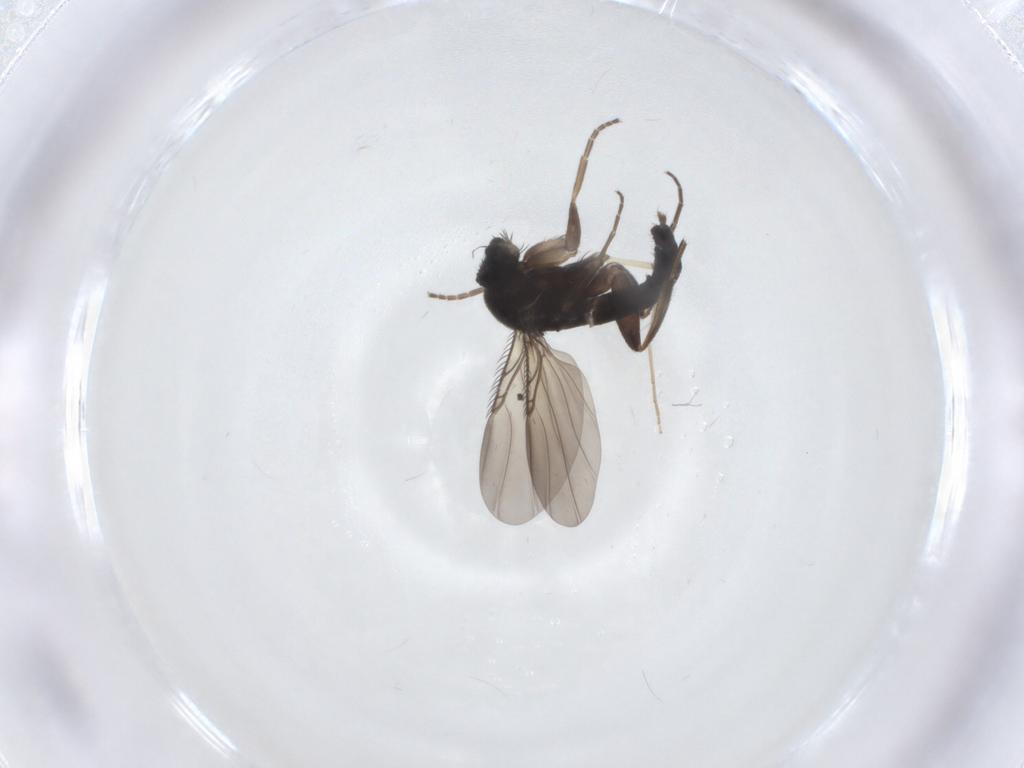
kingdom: Animalia
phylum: Arthropoda
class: Insecta
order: Diptera
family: Phoridae
